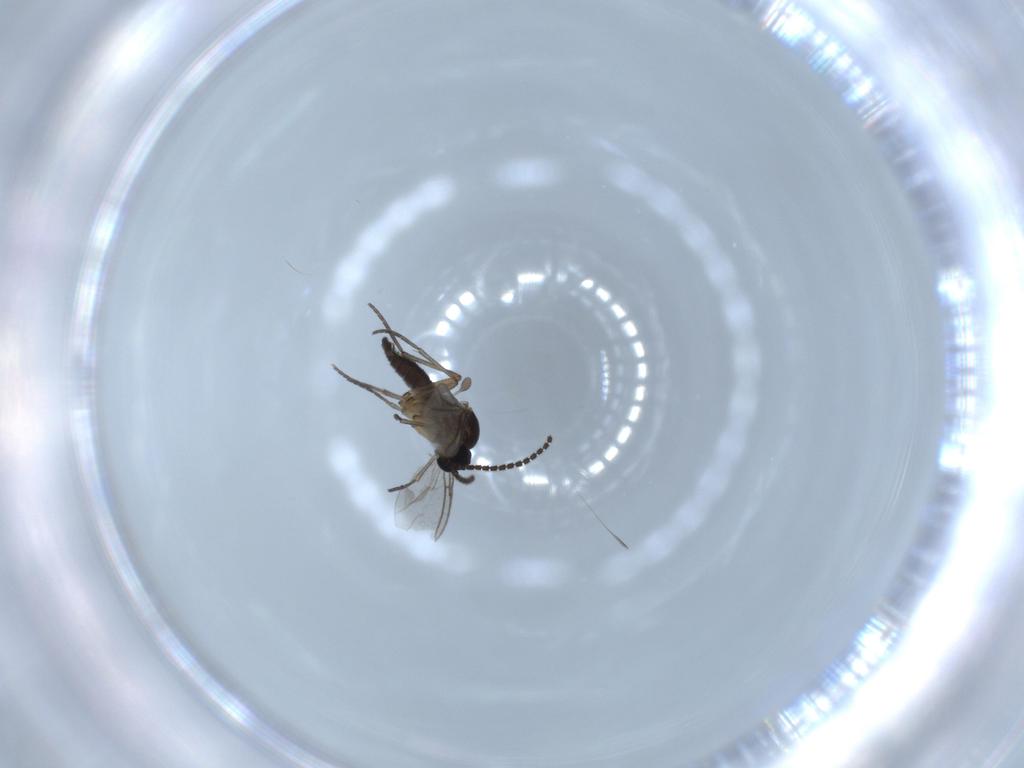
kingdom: Animalia
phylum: Arthropoda
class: Insecta
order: Diptera
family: Sciaridae
